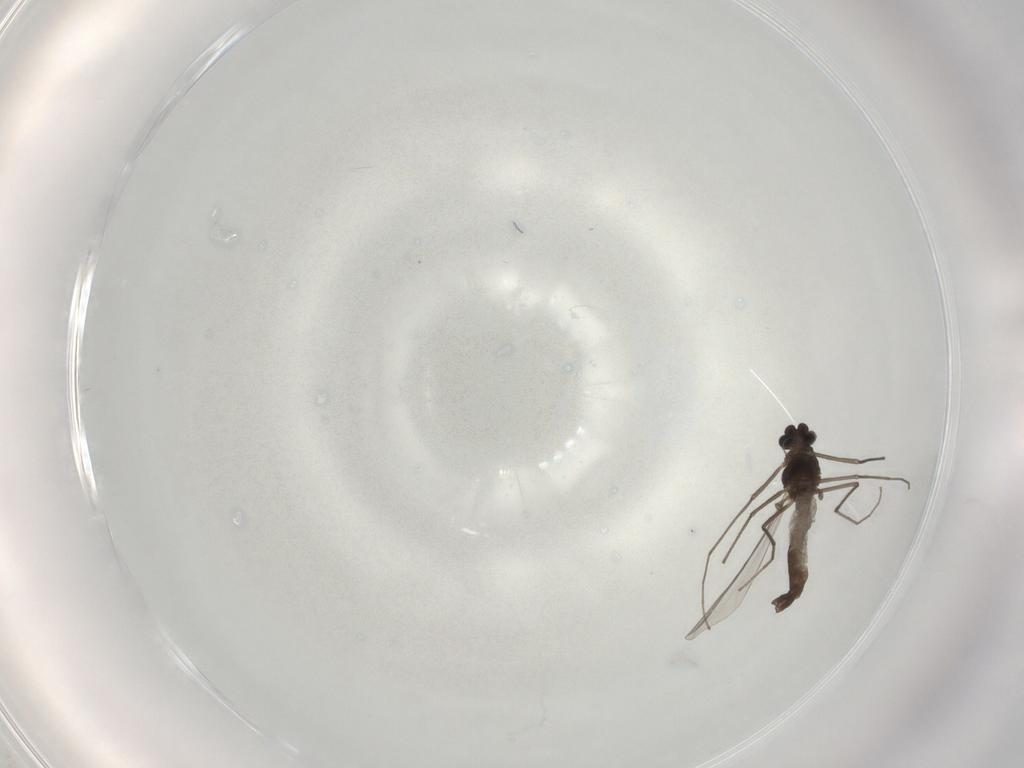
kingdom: Animalia
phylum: Arthropoda
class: Insecta
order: Diptera
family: Chironomidae
